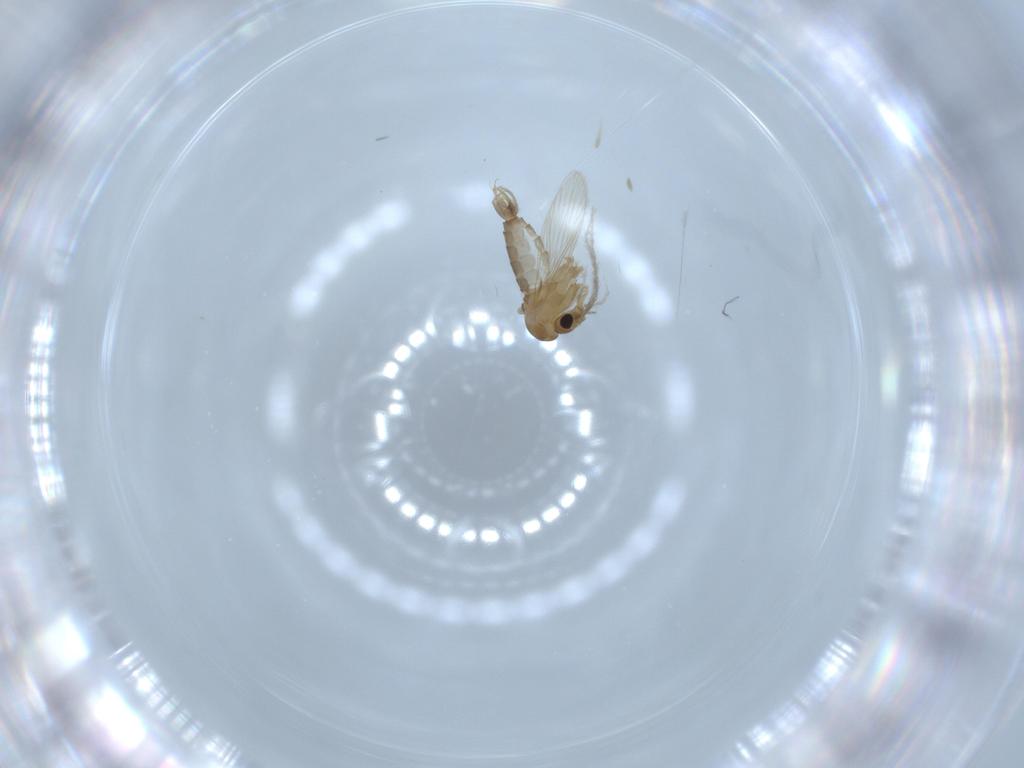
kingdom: Animalia
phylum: Arthropoda
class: Insecta
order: Diptera
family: Psychodidae
